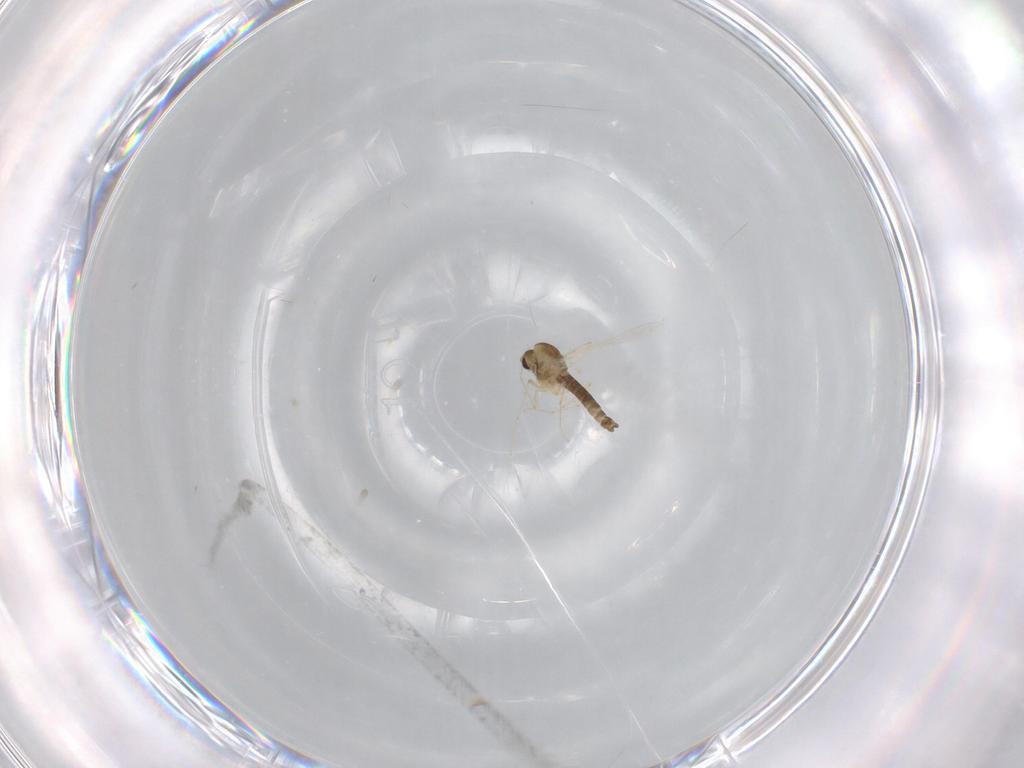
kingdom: Animalia
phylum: Arthropoda
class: Insecta
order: Diptera
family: Chironomidae
